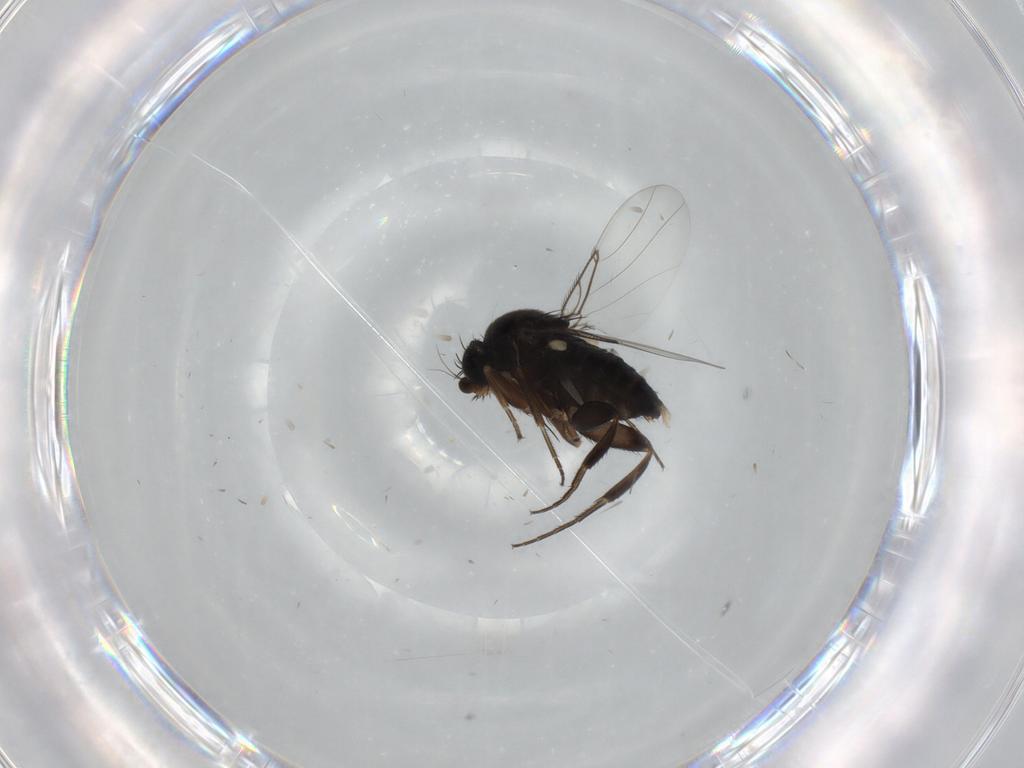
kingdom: Animalia
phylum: Arthropoda
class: Insecta
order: Diptera
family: Phoridae
